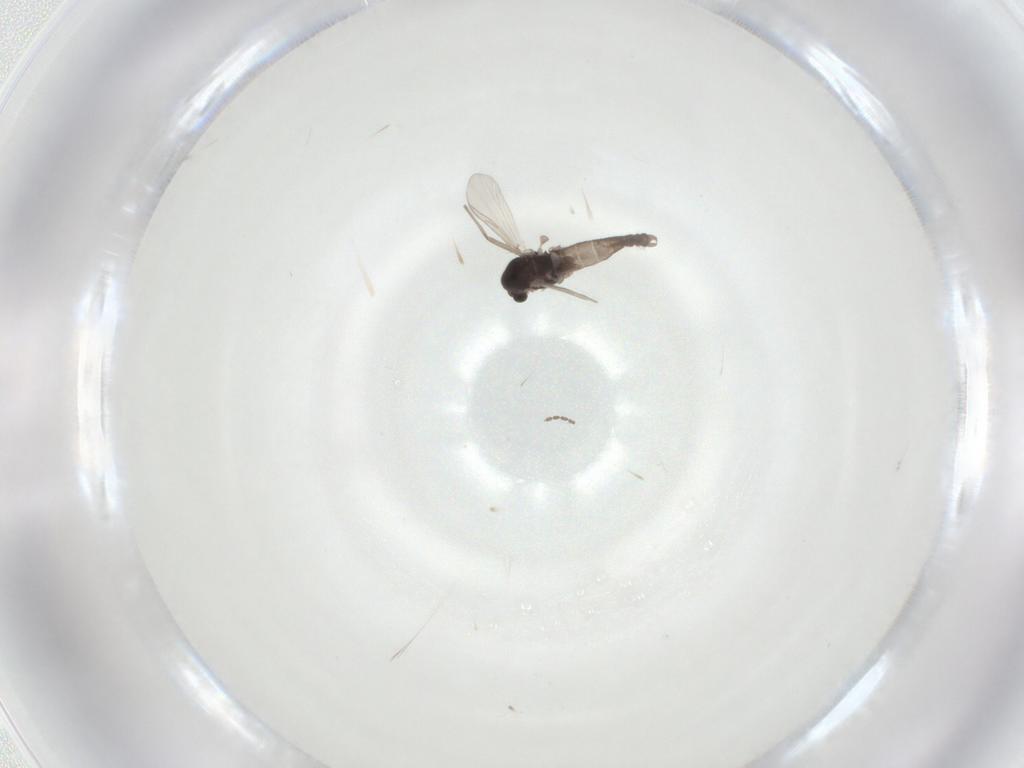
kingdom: Animalia
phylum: Arthropoda
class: Insecta
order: Diptera
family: Chironomidae
